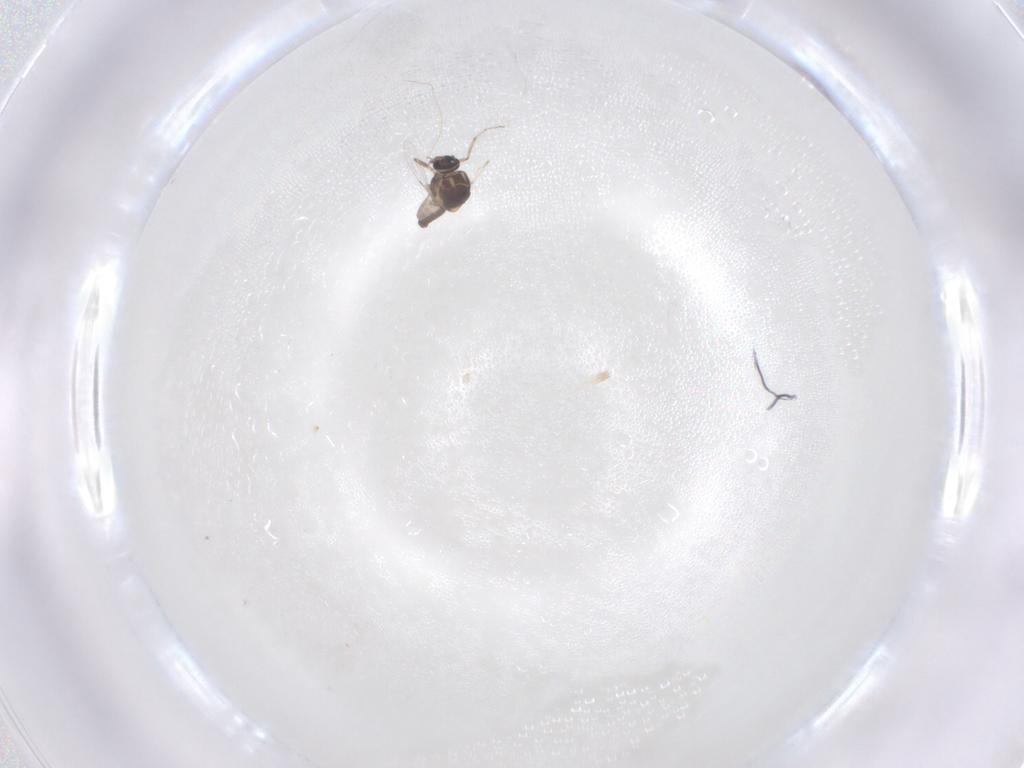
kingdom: Animalia
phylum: Arthropoda
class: Insecta
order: Diptera
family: Ceratopogonidae
